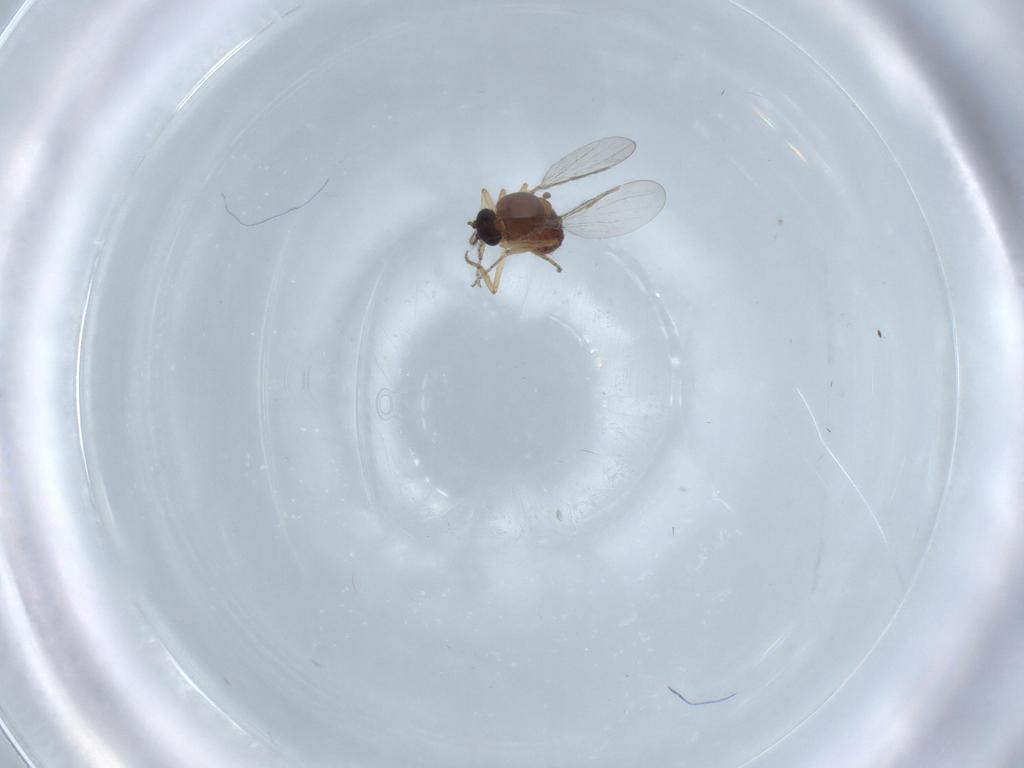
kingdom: Animalia
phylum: Arthropoda
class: Insecta
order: Diptera
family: Ceratopogonidae
